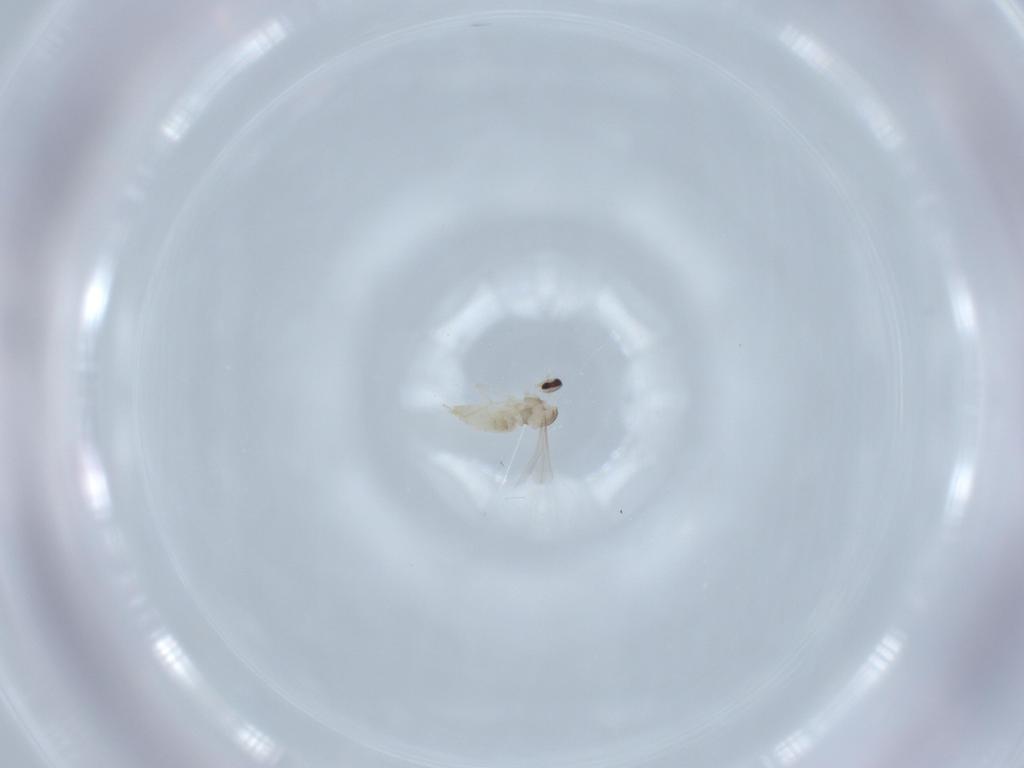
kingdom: Animalia
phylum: Arthropoda
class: Insecta
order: Diptera
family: Cecidomyiidae
